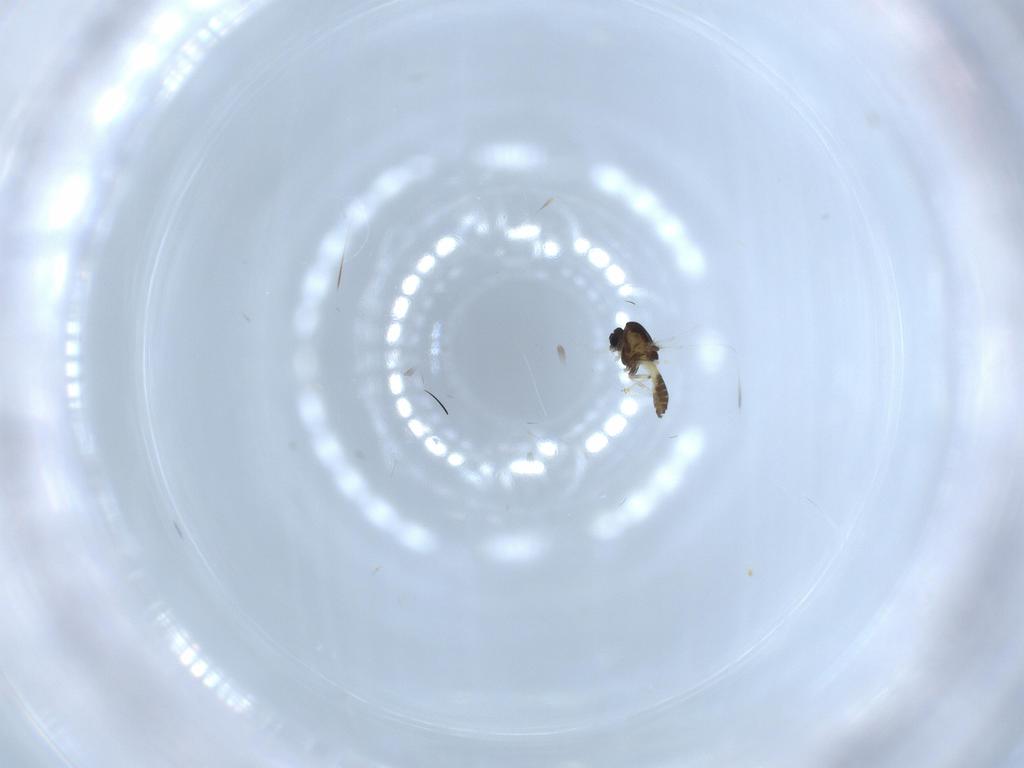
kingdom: Animalia
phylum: Arthropoda
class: Insecta
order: Diptera
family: Chironomidae
